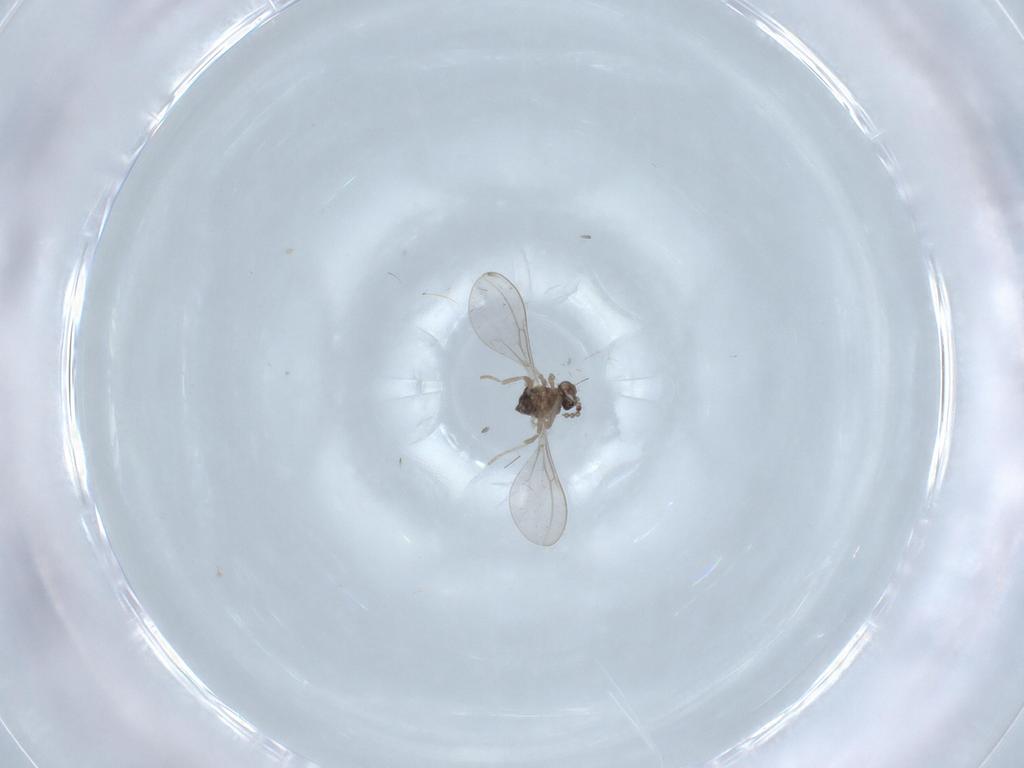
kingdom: Animalia
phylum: Arthropoda
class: Insecta
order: Diptera
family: Cecidomyiidae
